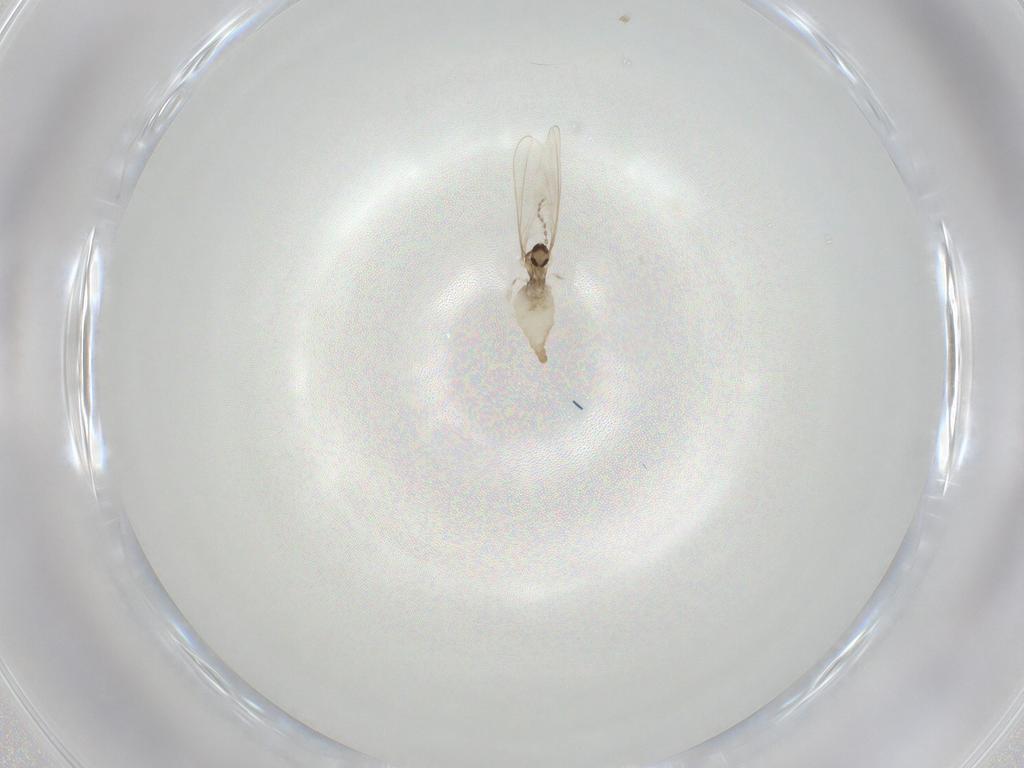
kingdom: Animalia
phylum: Arthropoda
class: Insecta
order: Diptera
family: Cecidomyiidae
